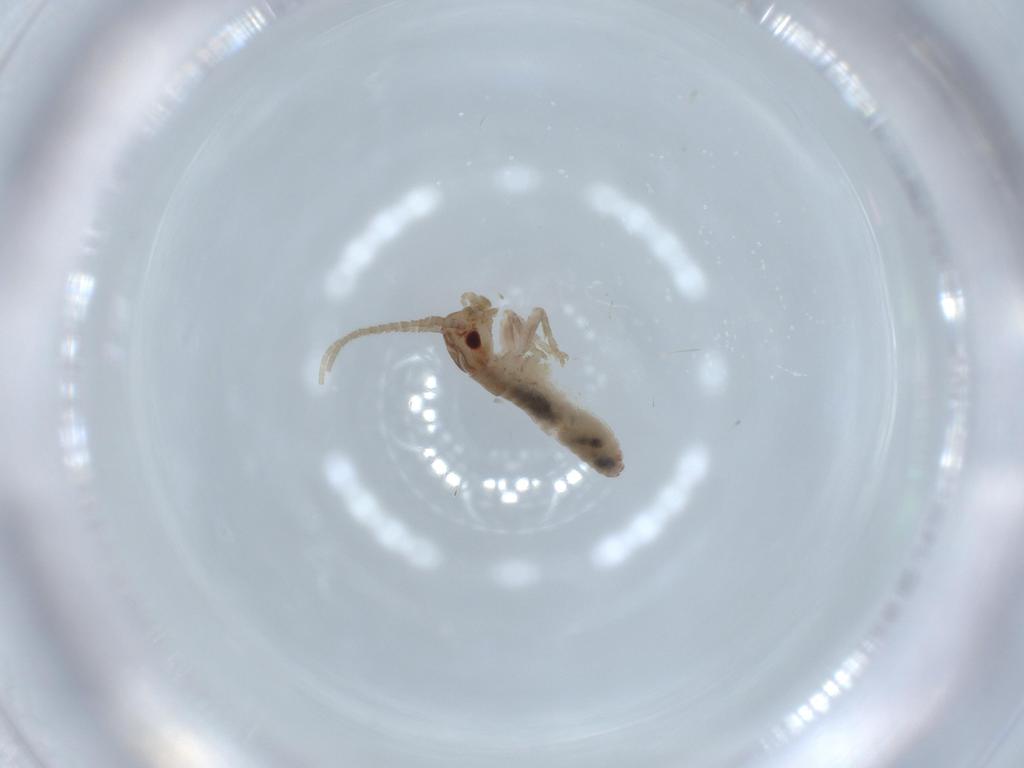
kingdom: Animalia
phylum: Arthropoda
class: Insecta
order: Orthoptera
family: Mogoplistidae
